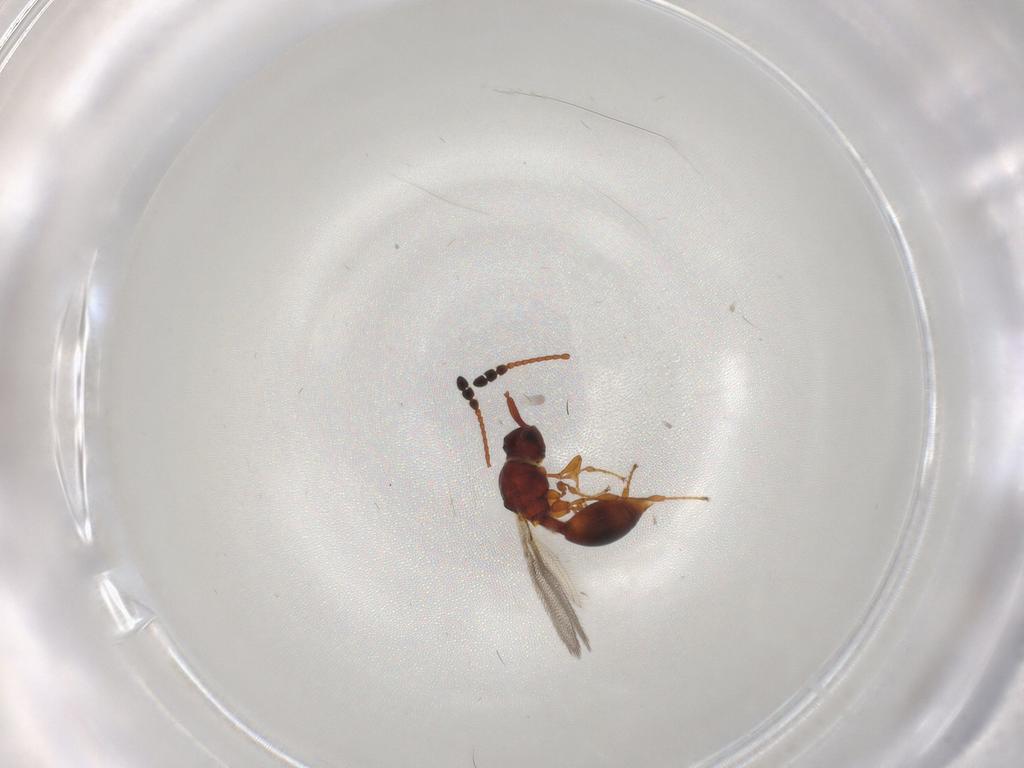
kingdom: Animalia
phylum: Arthropoda
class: Insecta
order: Hymenoptera
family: Diapriidae
